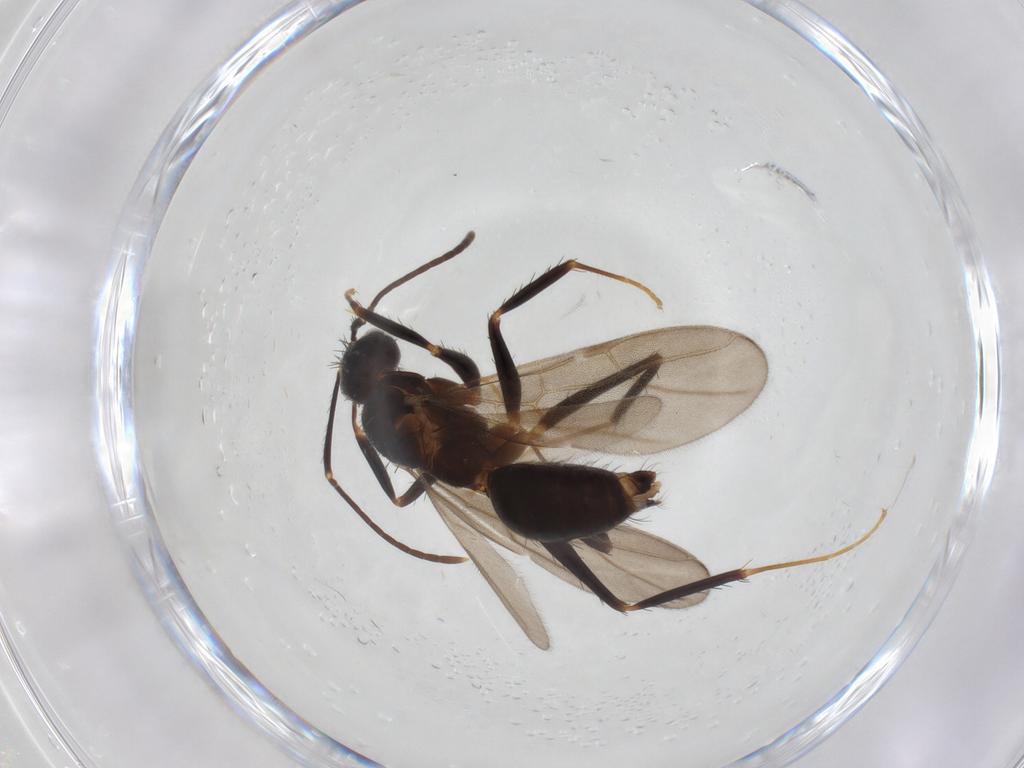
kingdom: Animalia
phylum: Arthropoda
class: Insecta
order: Hymenoptera
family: Formicidae
